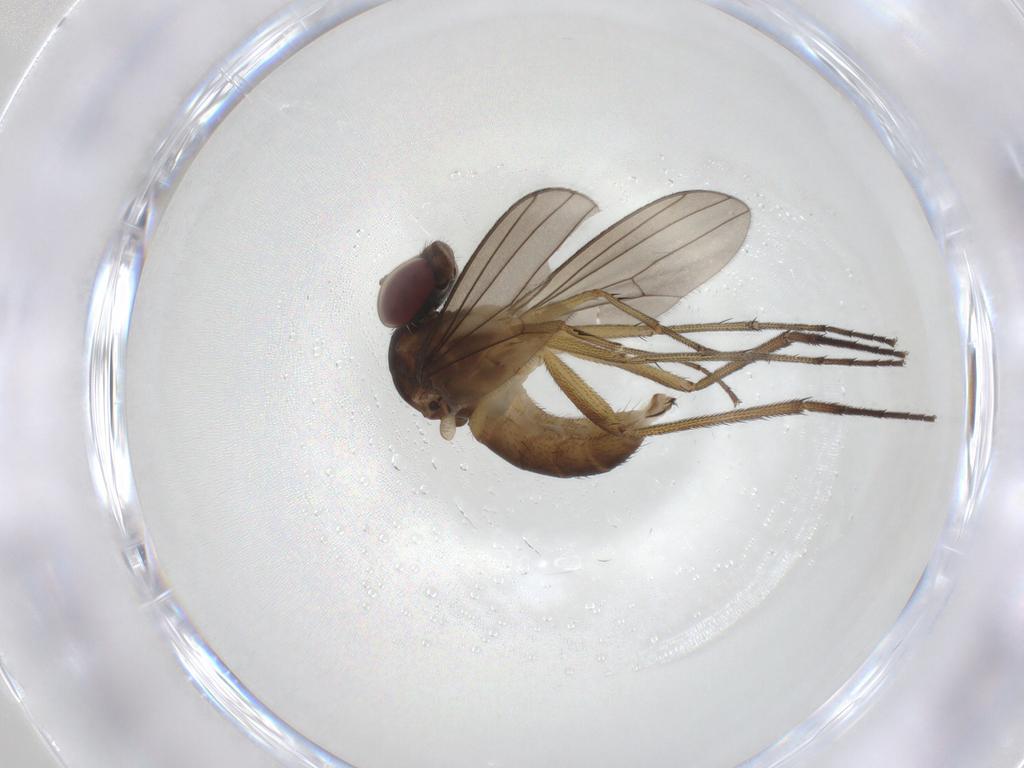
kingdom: Animalia
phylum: Arthropoda
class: Insecta
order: Diptera
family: Dolichopodidae
